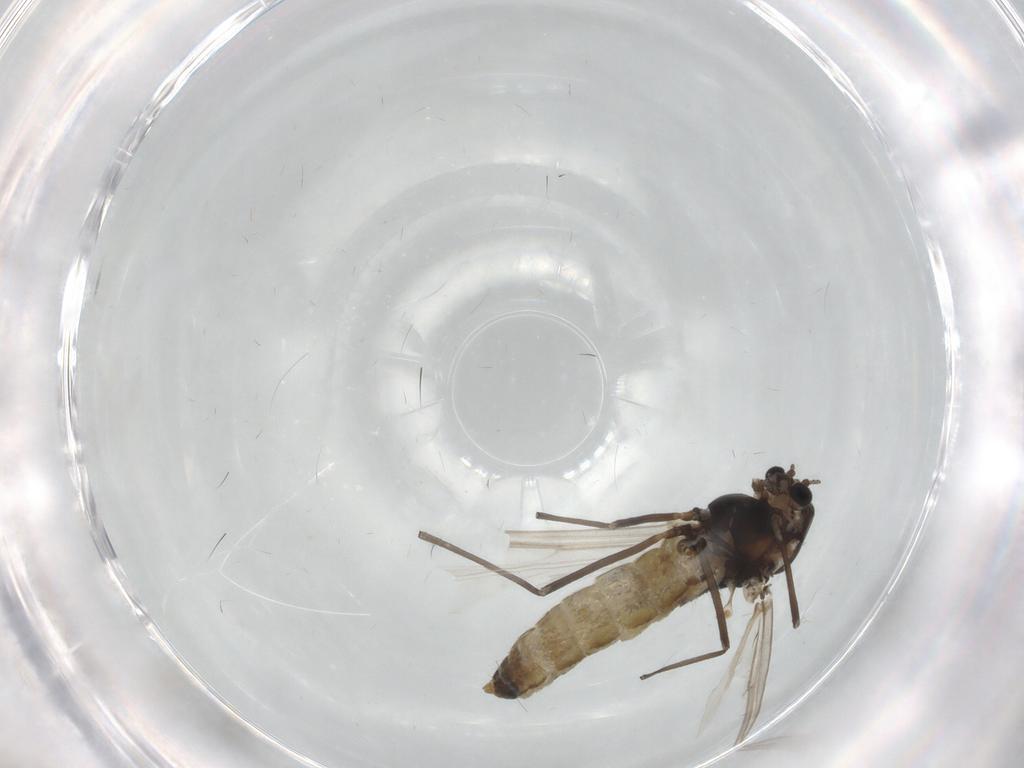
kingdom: Animalia
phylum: Arthropoda
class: Insecta
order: Diptera
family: Chironomidae
